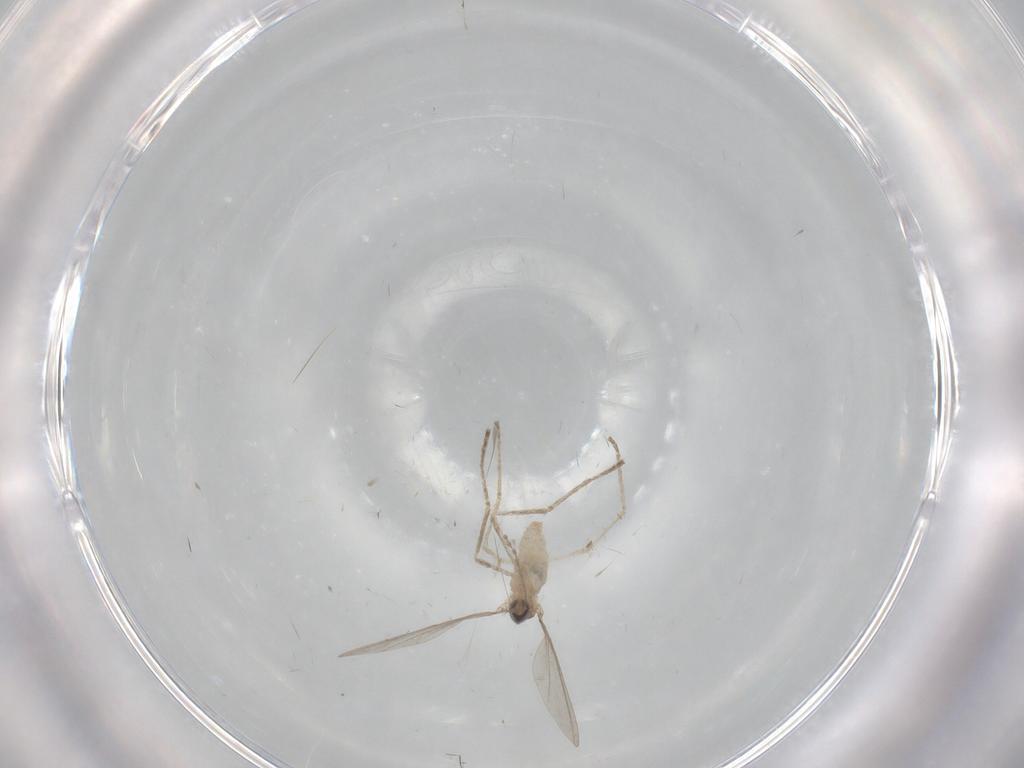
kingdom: Animalia
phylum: Arthropoda
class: Insecta
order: Diptera
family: Cecidomyiidae
